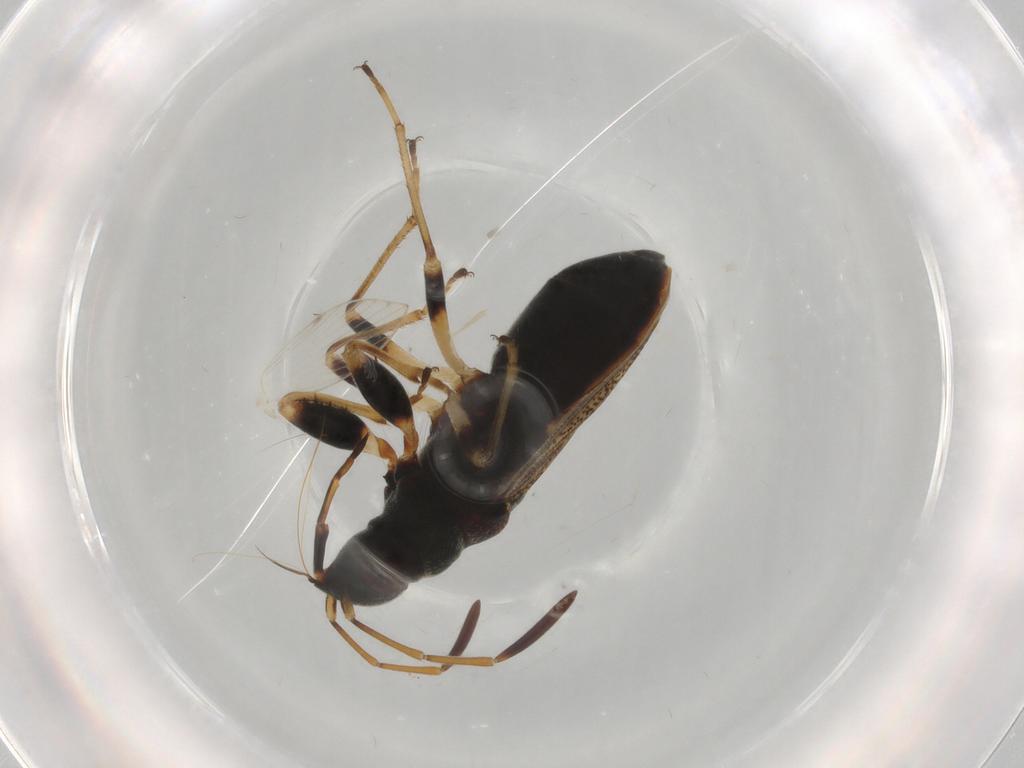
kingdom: Animalia
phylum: Arthropoda
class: Insecta
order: Hemiptera
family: Rhyparochromidae
